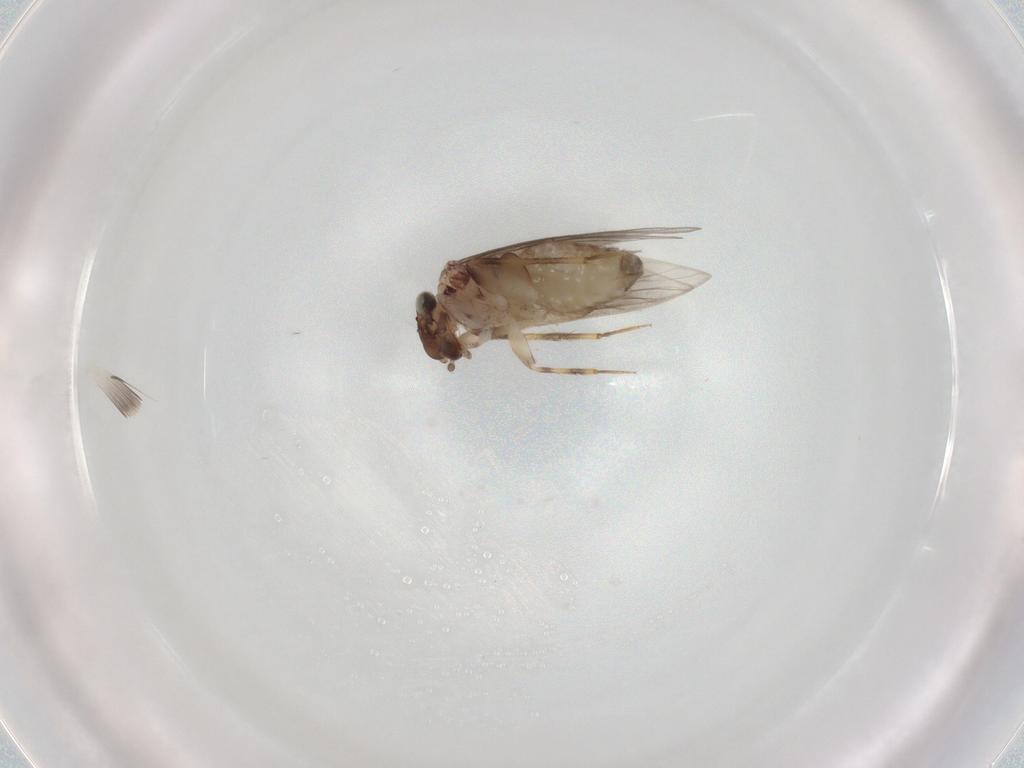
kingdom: Animalia
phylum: Arthropoda
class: Insecta
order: Psocodea
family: Lepidopsocidae
